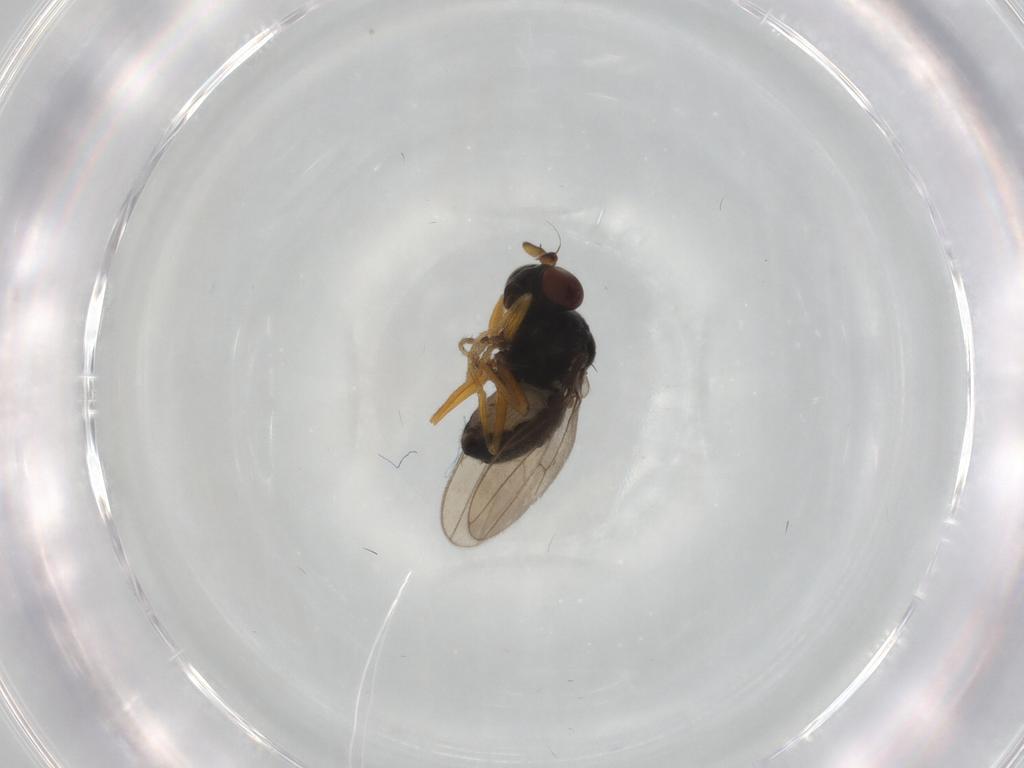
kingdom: Animalia
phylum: Arthropoda
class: Insecta
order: Diptera
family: Ephydridae
